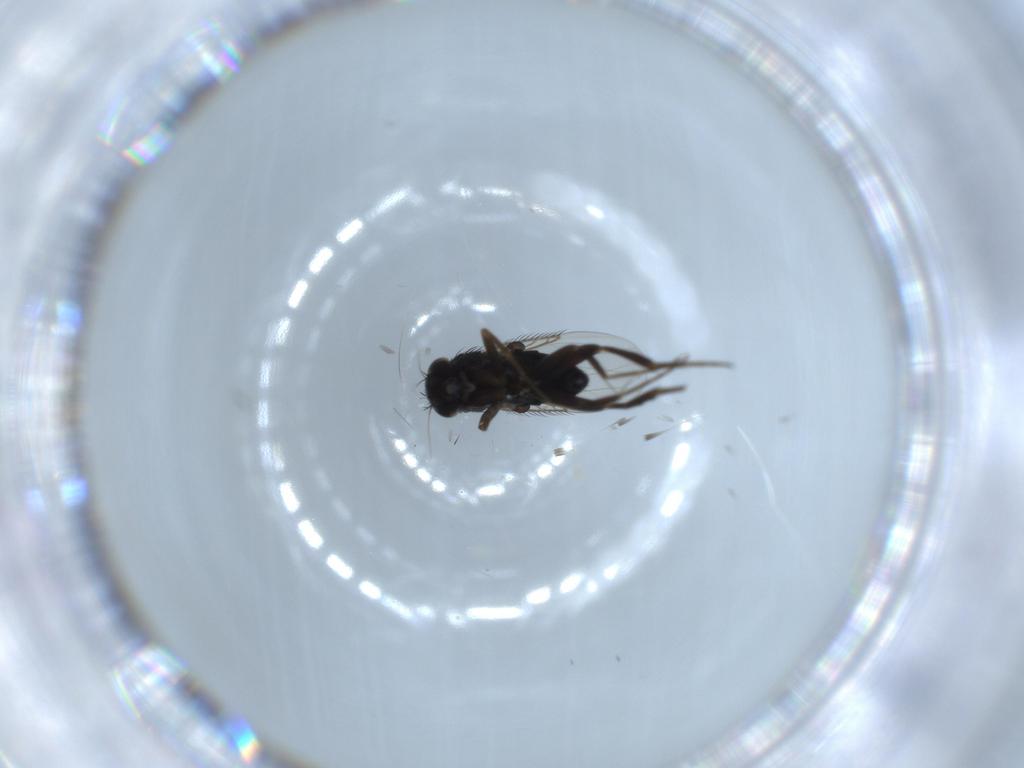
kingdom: Animalia
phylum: Arthropoda
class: Insecta
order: Diptera
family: Phoridae
